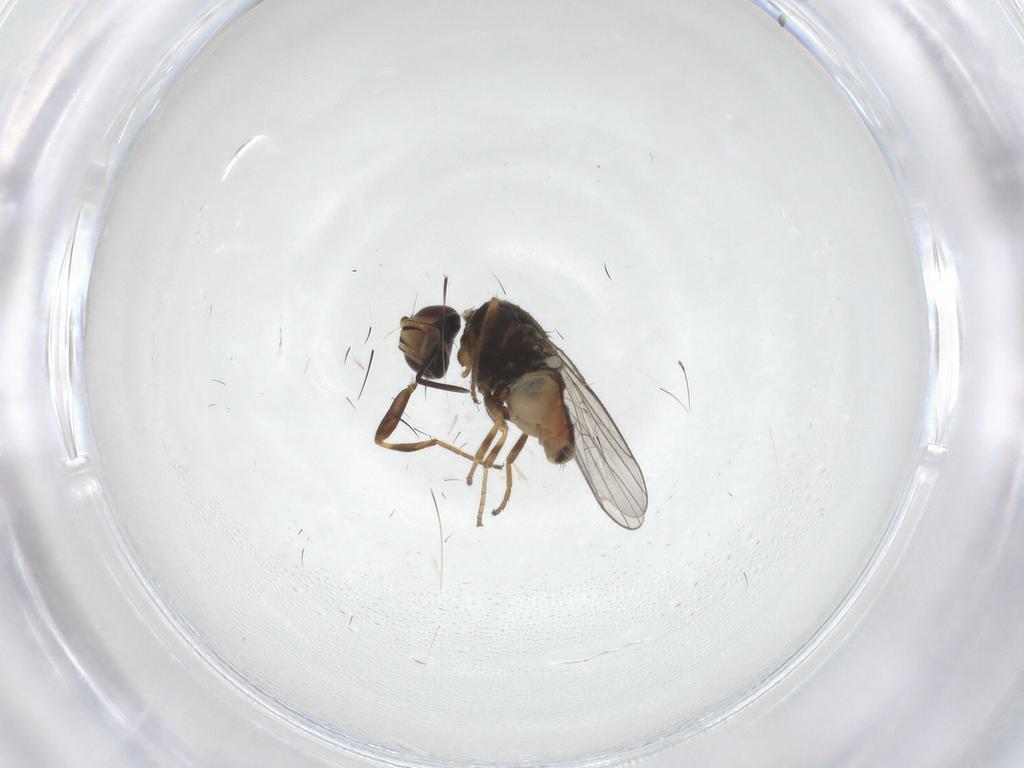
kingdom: Animalia
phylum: Arthropoda
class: Insecta
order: Diptera
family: Chloropidae
